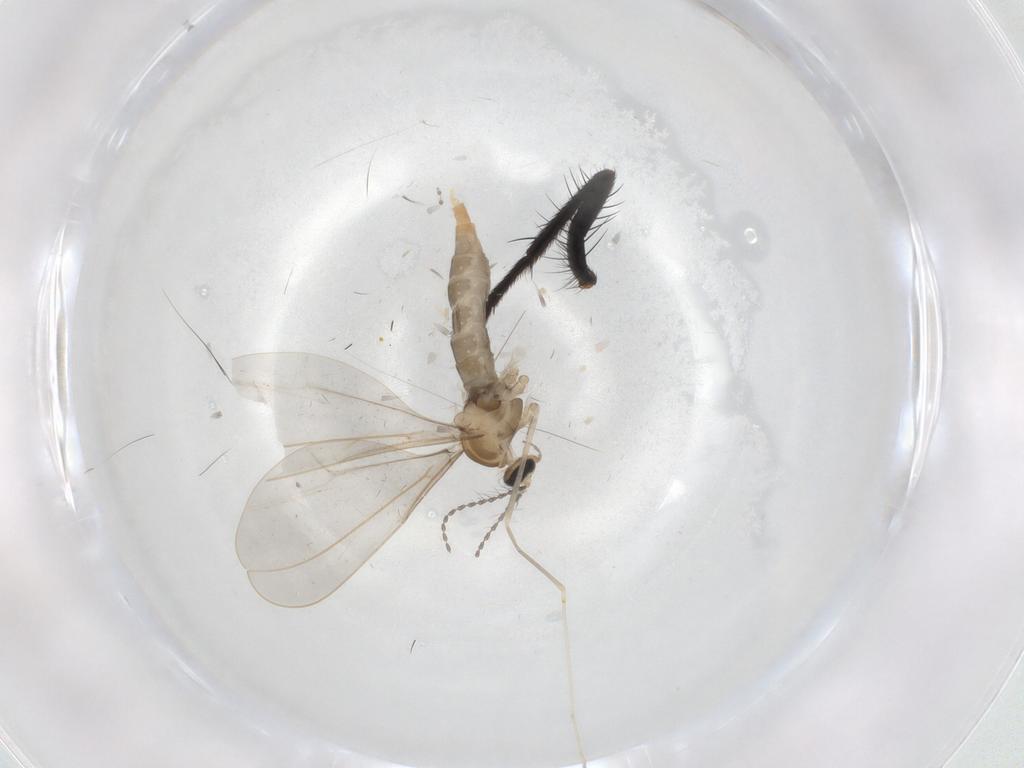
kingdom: Animalia
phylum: Arthropoda
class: Insecta
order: Diptera
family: Anthomyiidae
